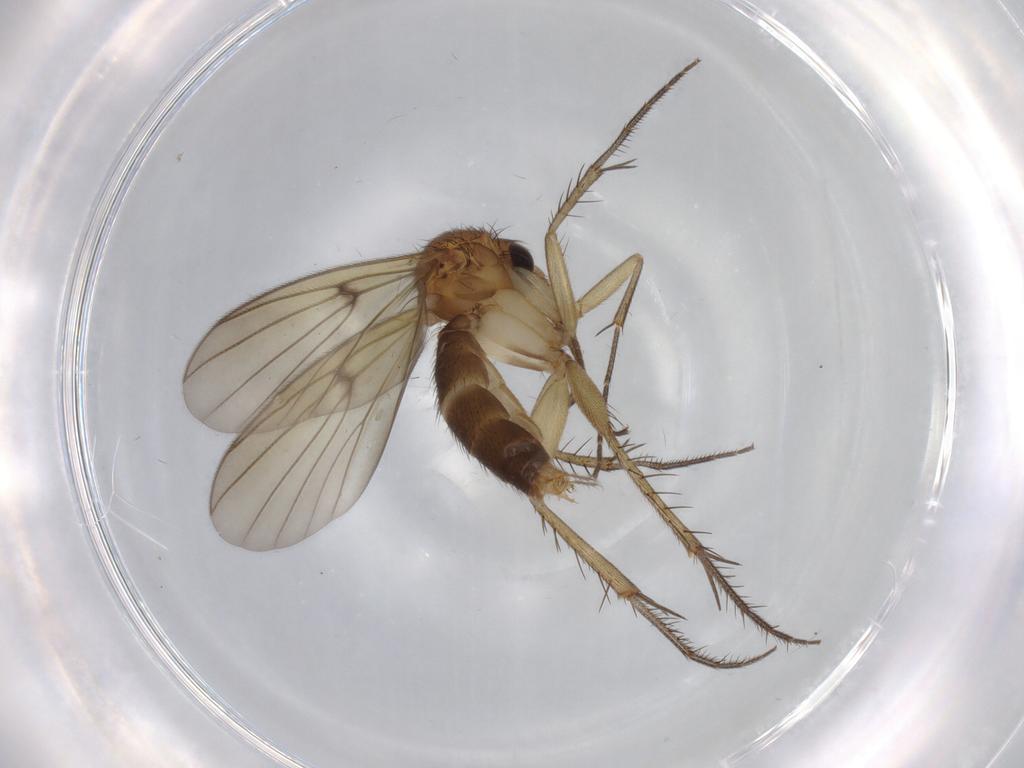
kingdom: Animalia
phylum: Arthropoda
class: Insecta
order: Diptera
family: Mycetophilidae
